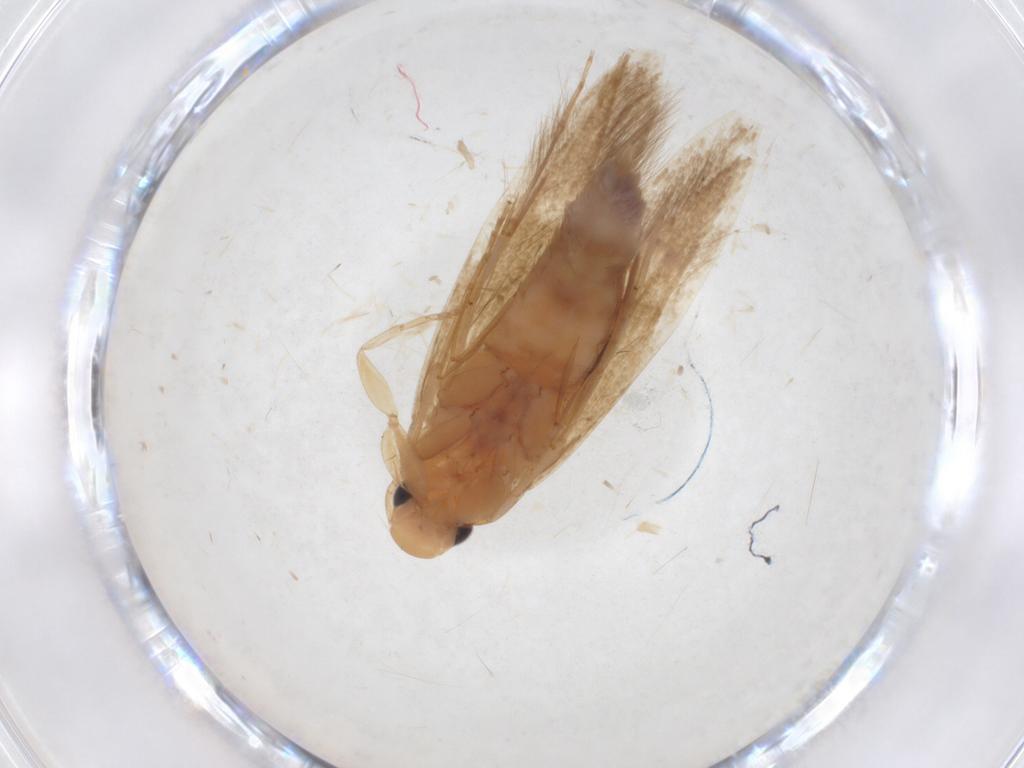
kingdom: Animalia
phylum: Arthropoda
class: Insecta
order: Lepidoptera
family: Tineidae
